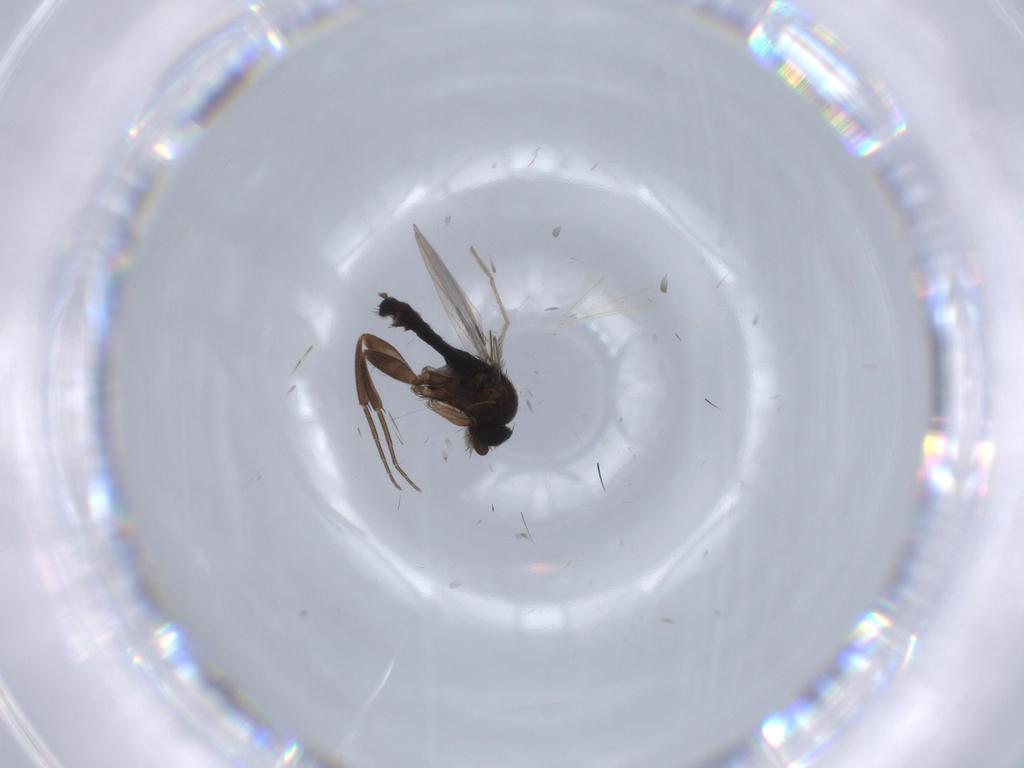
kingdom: Animalia
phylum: Arthropoda
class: Insecta
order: Diptera
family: Phoridae
